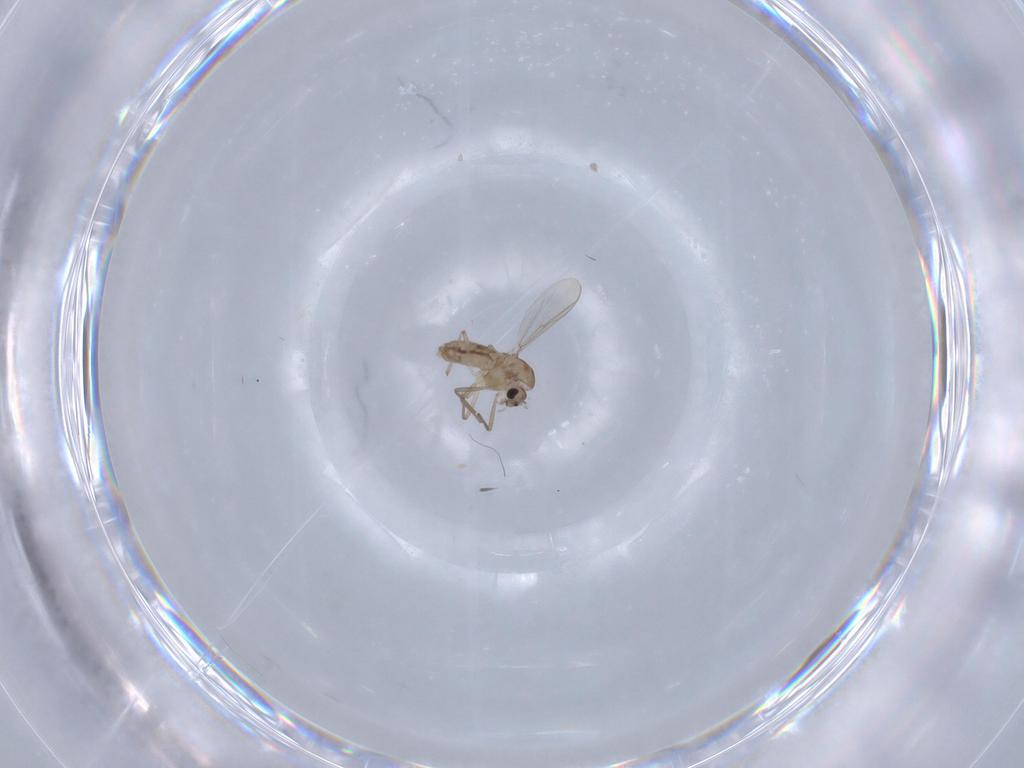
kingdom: Animalia
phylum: Arthropoda
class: Insecta
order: Diptera
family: Chironomidae
